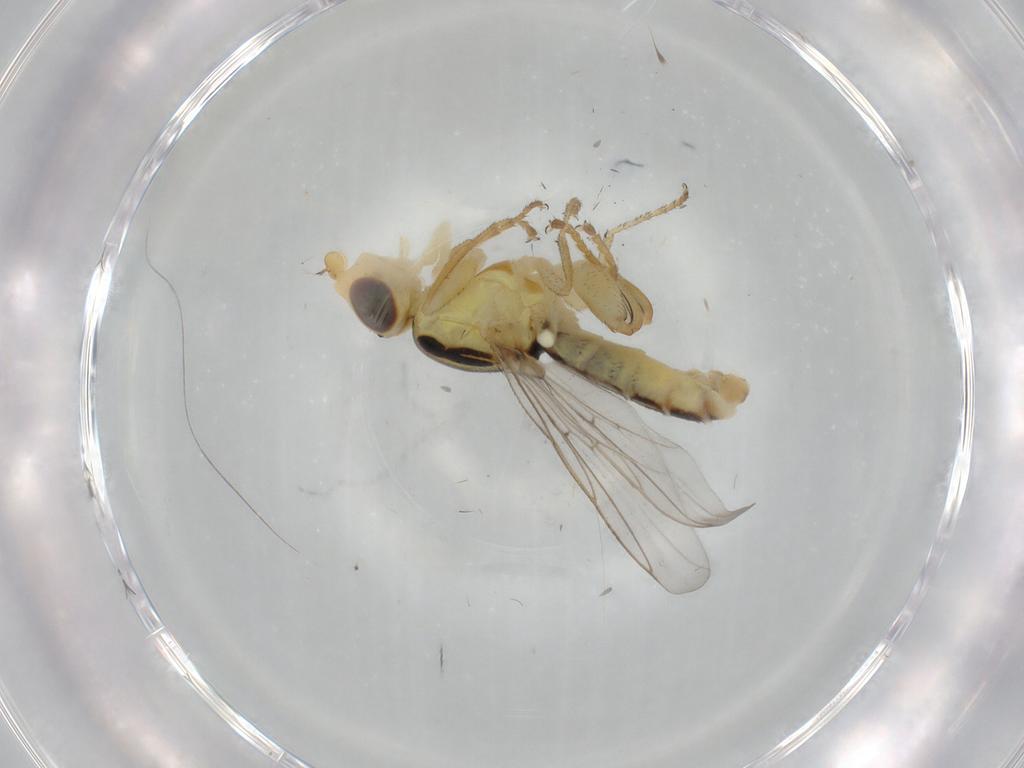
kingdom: Animalia
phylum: Arthropoda
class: Insecta
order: Diptera
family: Chloropidae
